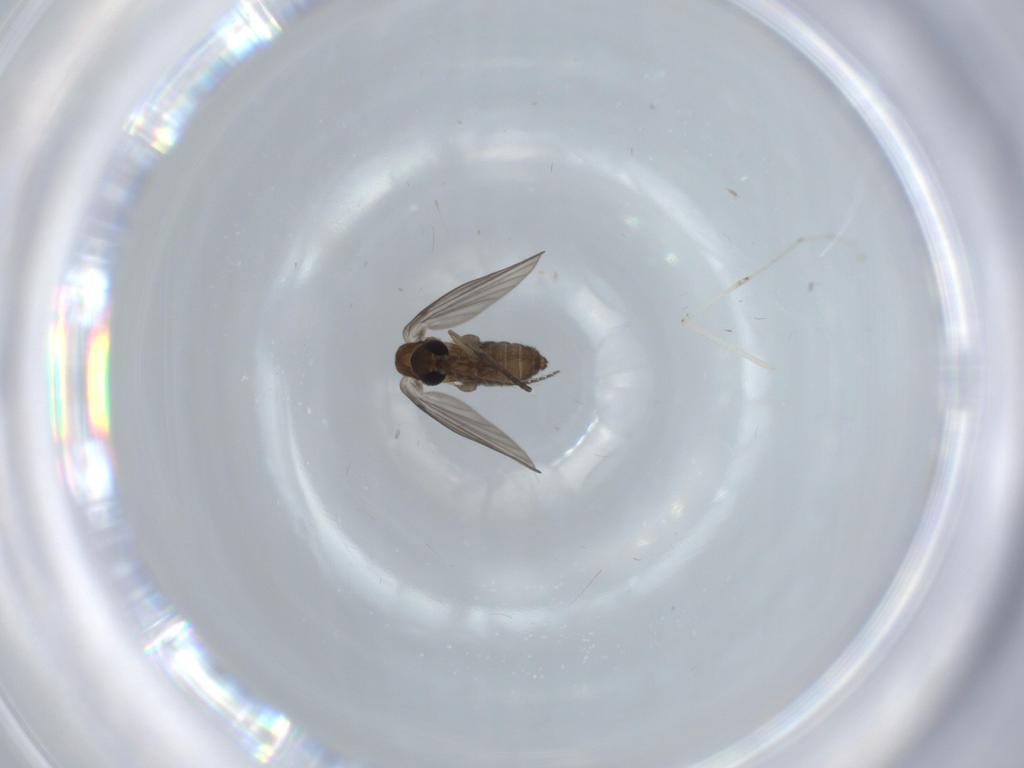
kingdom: Animalia
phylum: Arthropoda
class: Insecta
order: Diptera
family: Cecidomyiidae
